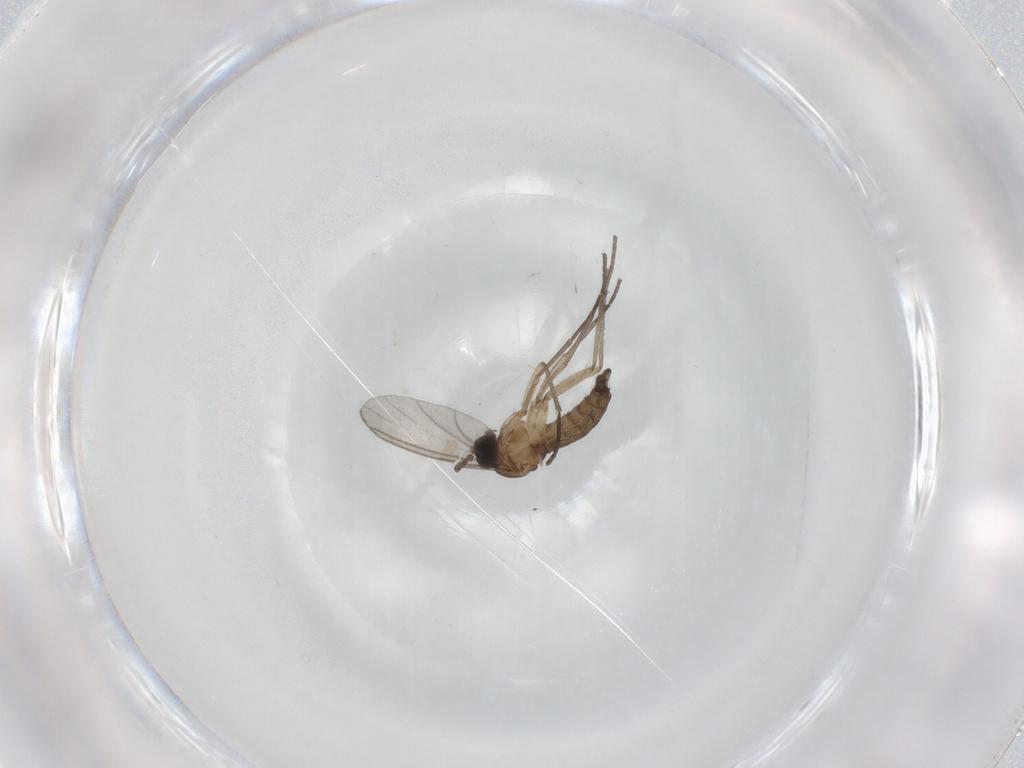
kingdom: Animalia
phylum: Arthropoda
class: Insecta
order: Diptera
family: Sciaridae
